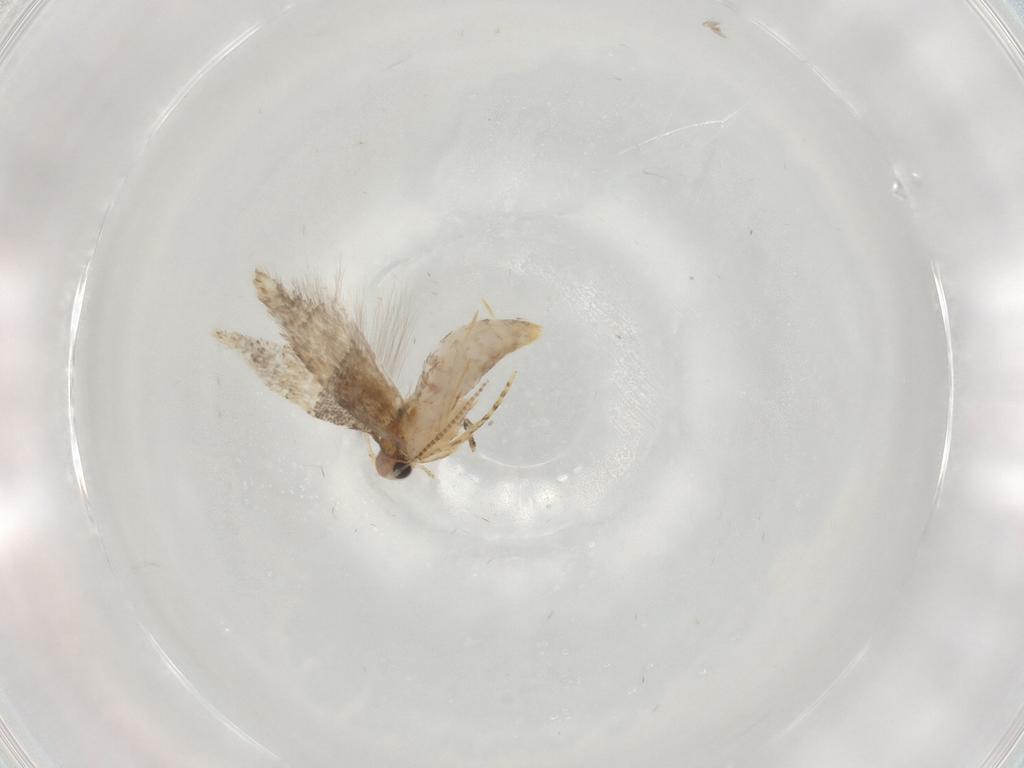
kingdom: Animalia
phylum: Arthropoda
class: Insecta
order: Lepidoptera
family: Tineidae
